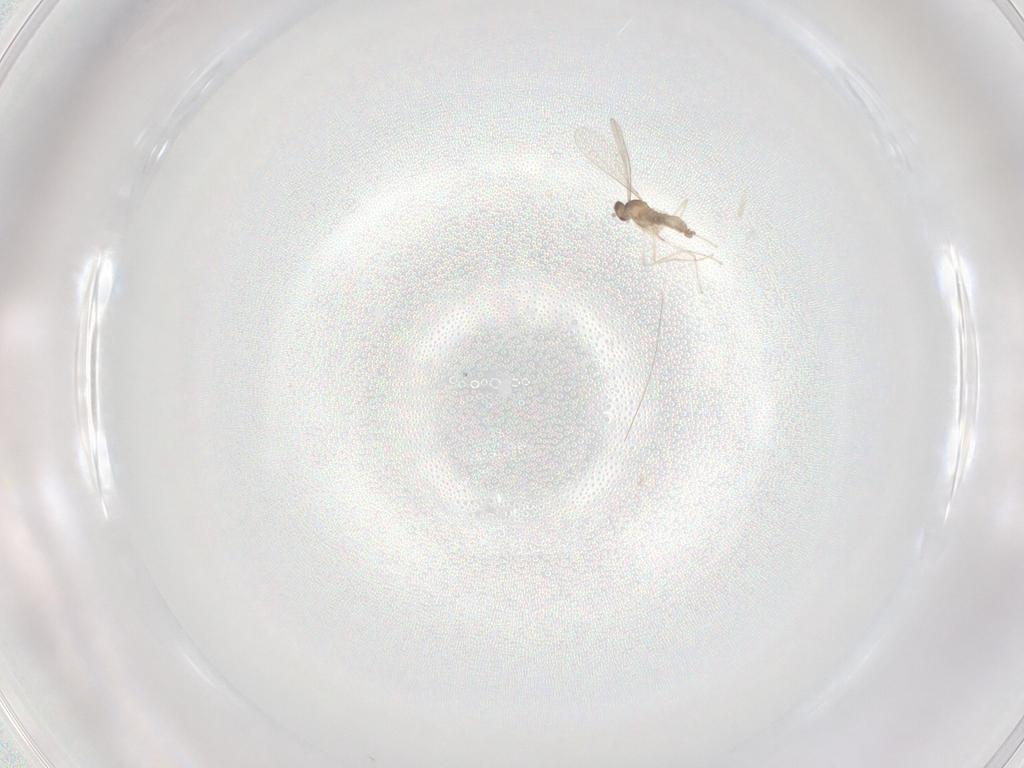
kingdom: Animalia
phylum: Arthropoda
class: Insecta
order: Diptera
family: Cecidomyiidae
